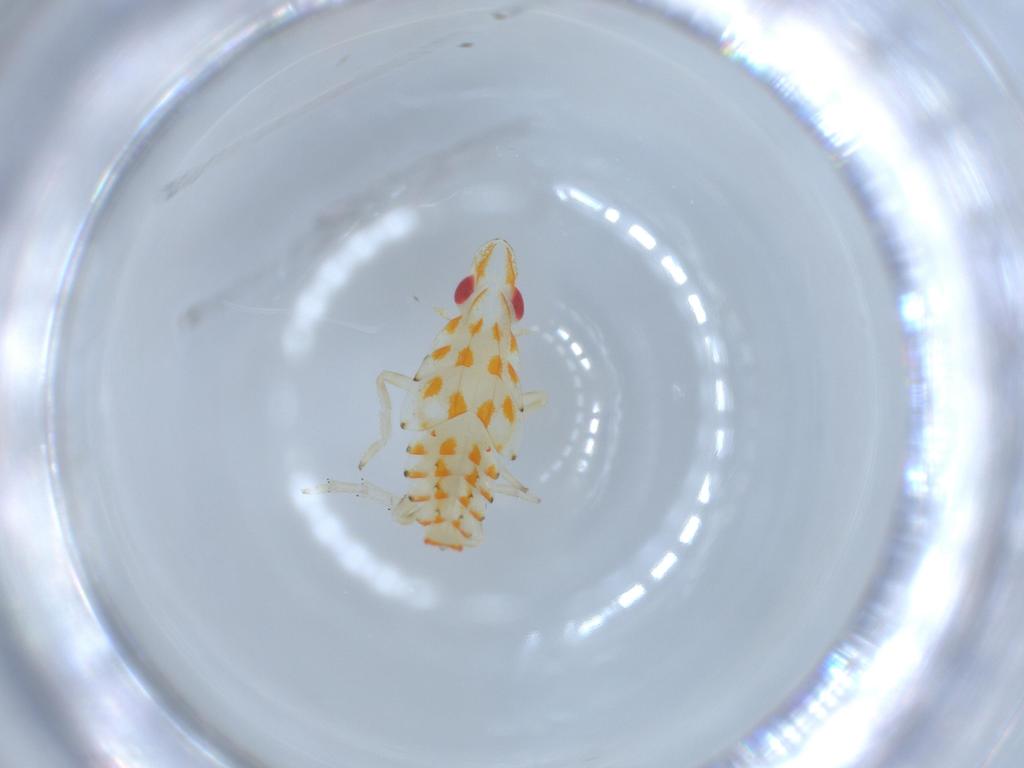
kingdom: Animalia
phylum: Arthropoda
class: Insecta
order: Hemiptera
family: Tropiduchidae
